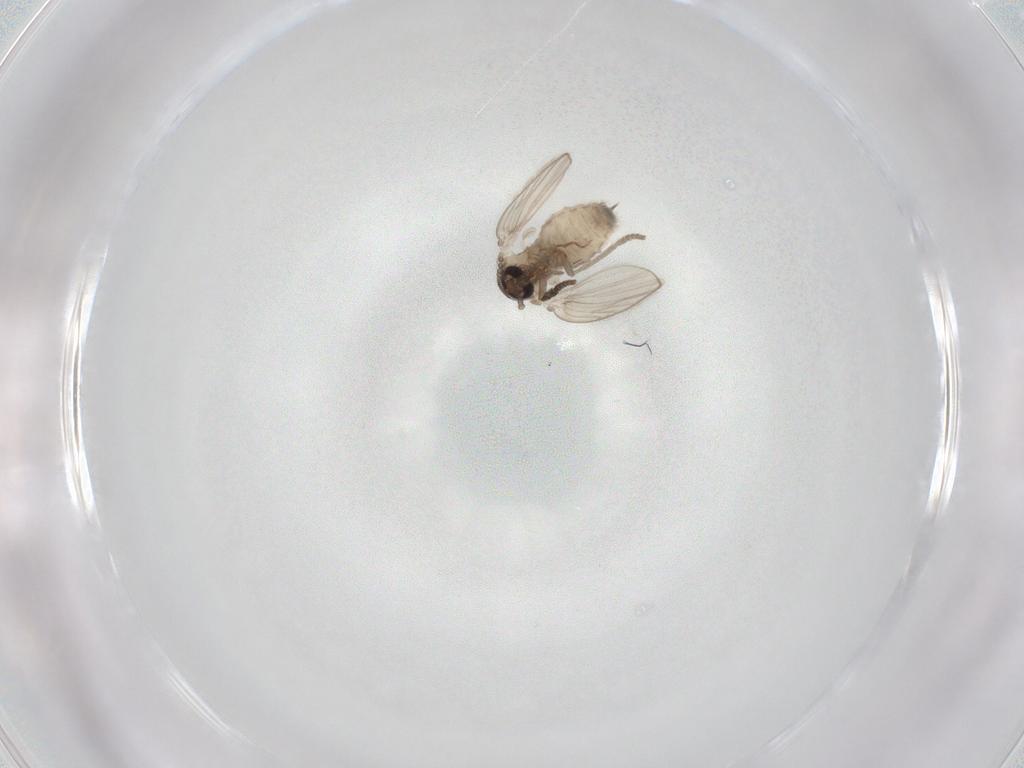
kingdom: Animalia
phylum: Arthropoda
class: Insecta
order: Diptera
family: Psychodidae
